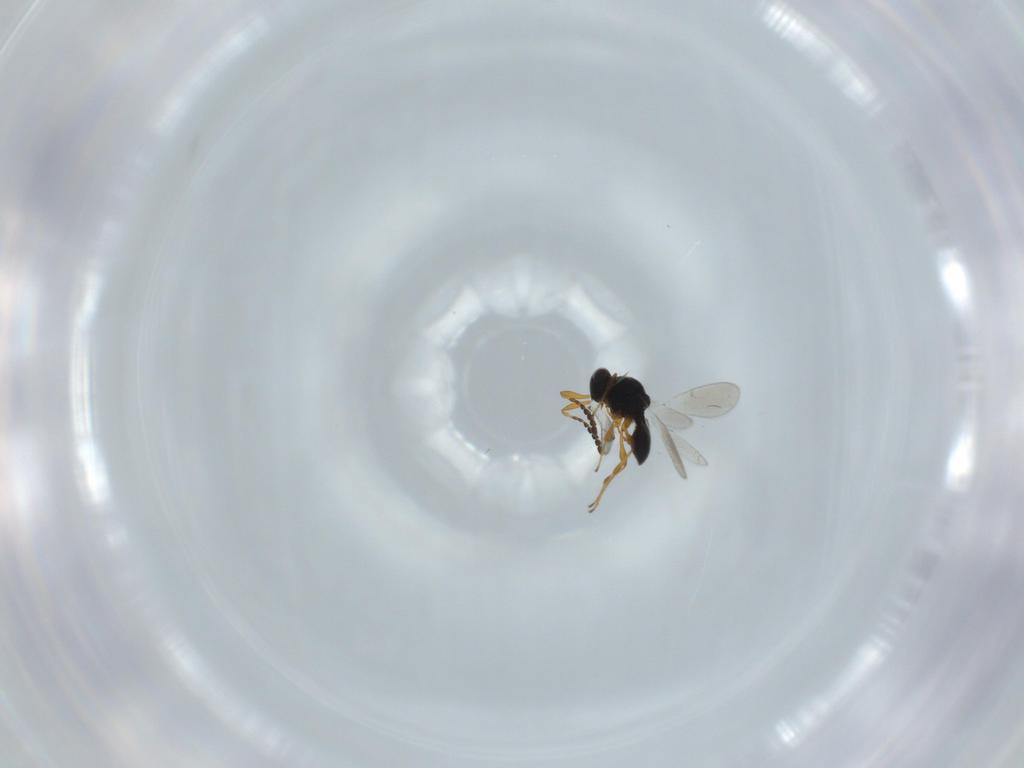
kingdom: Animalia
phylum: Arthropoda
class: Insecta
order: Hymenoptera
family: Platygastridae
